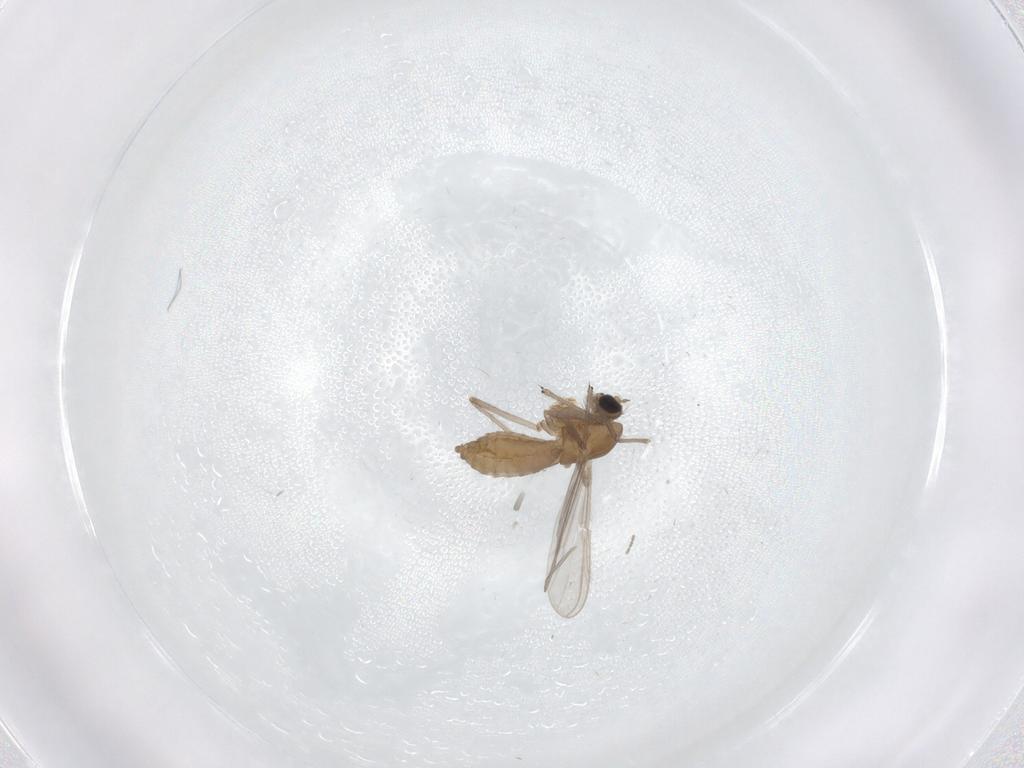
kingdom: Animalia
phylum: Arthropoda
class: Insecta
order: Diptera
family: Chironomidae
